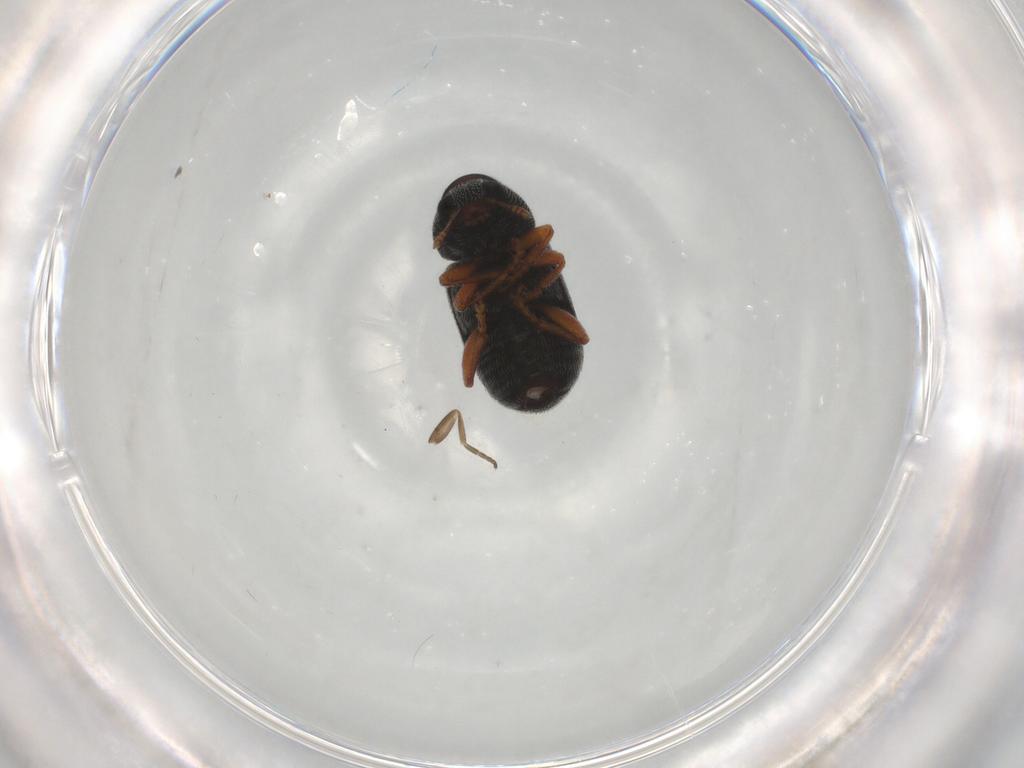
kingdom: Animalia
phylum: Arthropoda
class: Insecta
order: Coleoptera
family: Anthribidae
